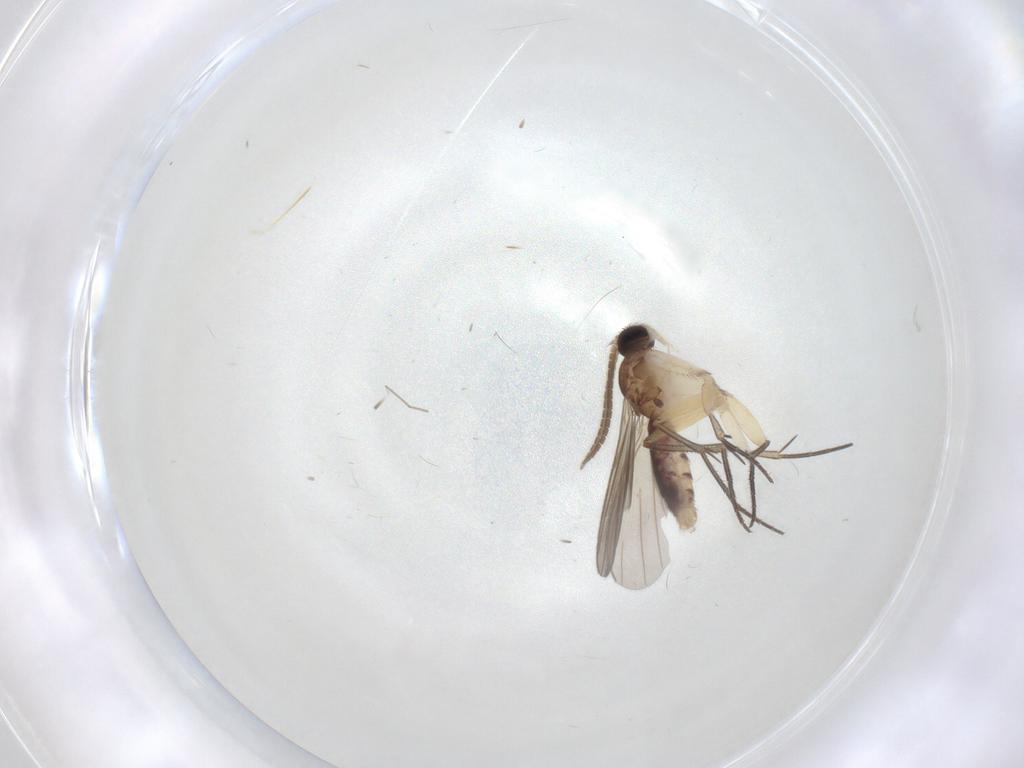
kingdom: Animalia
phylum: Arthropoda
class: Insecta
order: Diptera
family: Mycetophilidae
